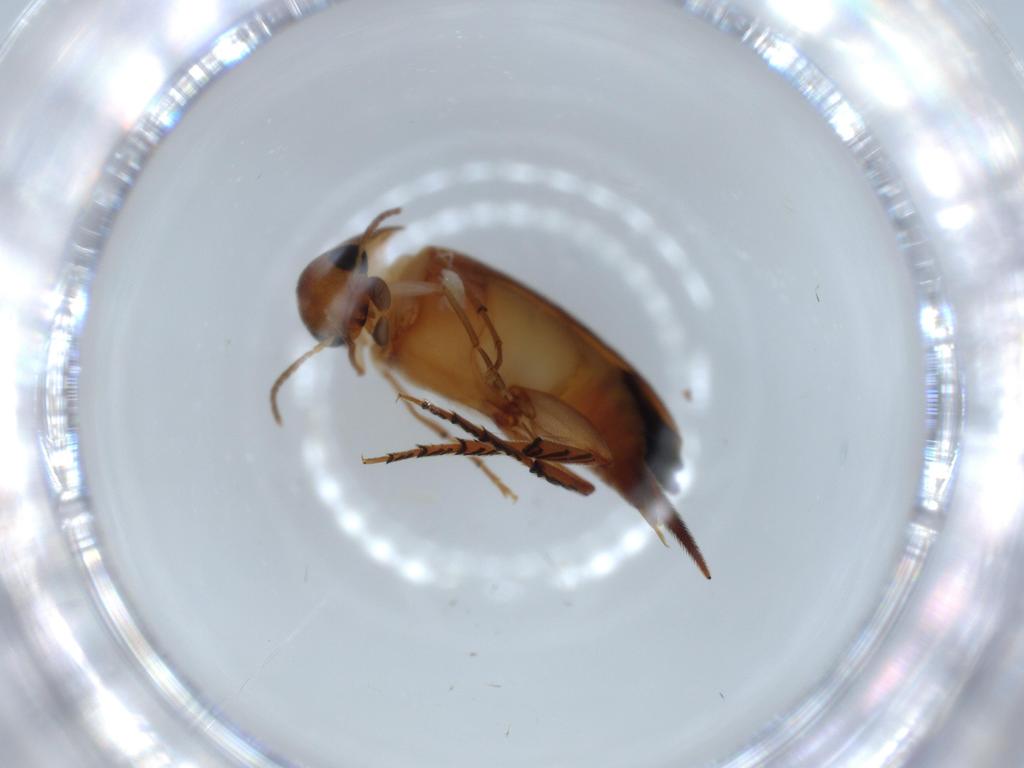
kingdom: Animalia
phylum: Arthropoda
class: Insecta
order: Coleoptera
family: Mordellidae
